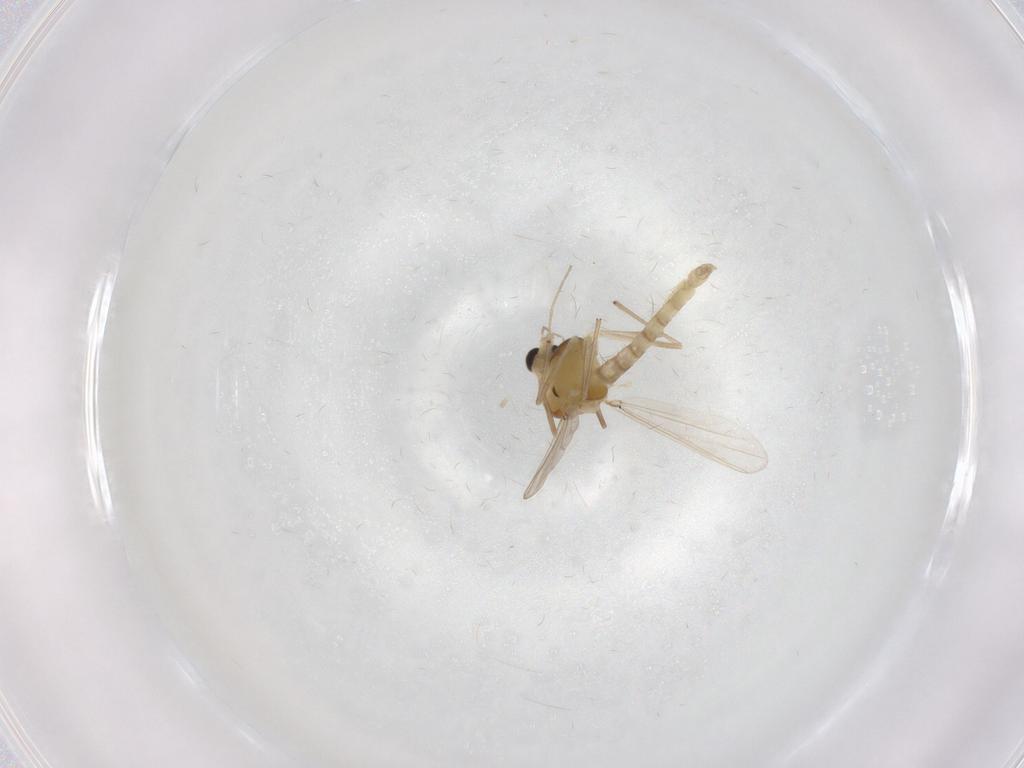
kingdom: Animalia
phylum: Arthropoda
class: Insecta
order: Diptera
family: Chironomidae
